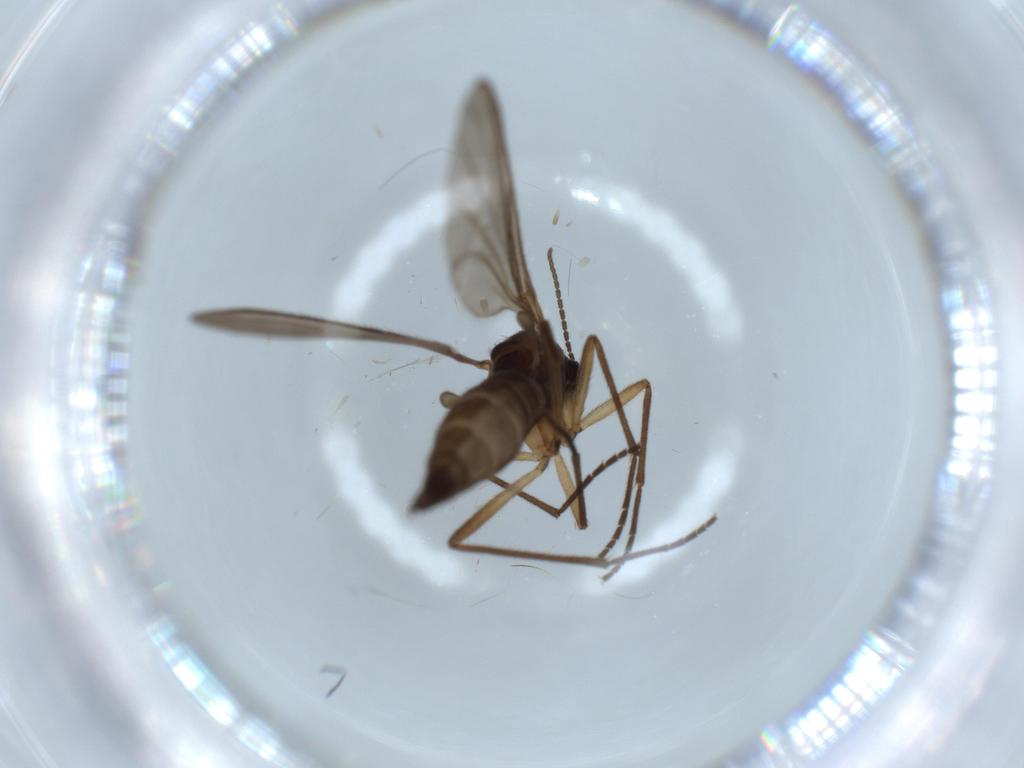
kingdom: Animalia
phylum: Arthropoda
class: Insecta
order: Diptera
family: Sciaridae
